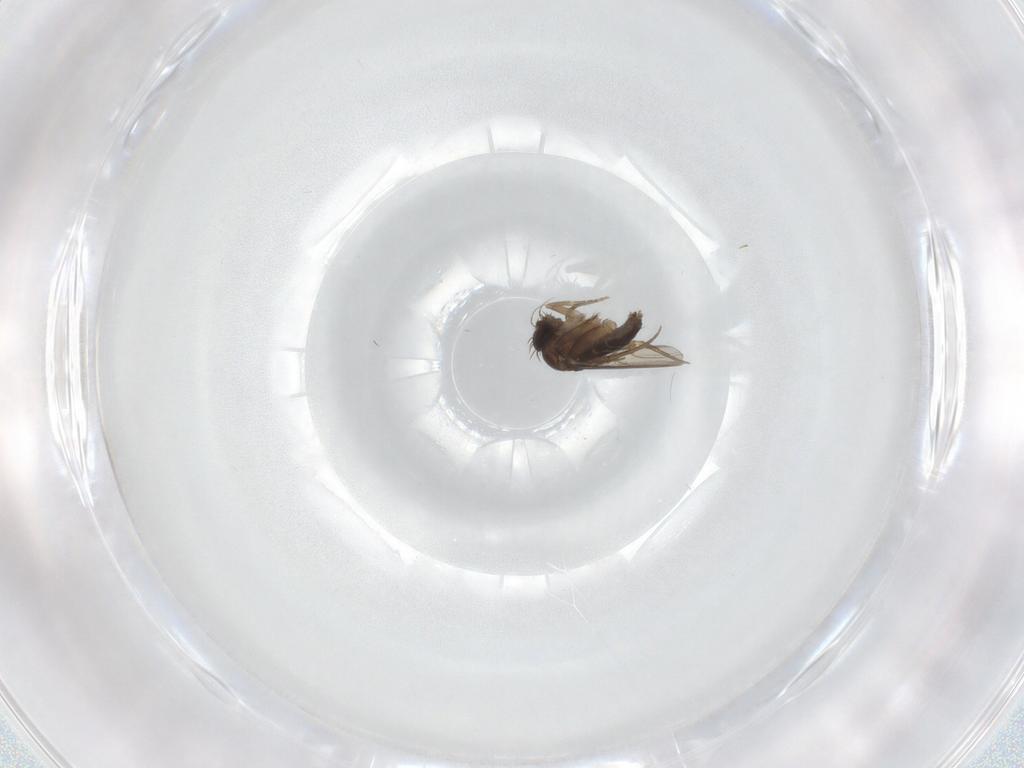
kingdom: Animalia
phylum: Arthropoda
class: Insecta
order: Diptera
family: Phoridae
